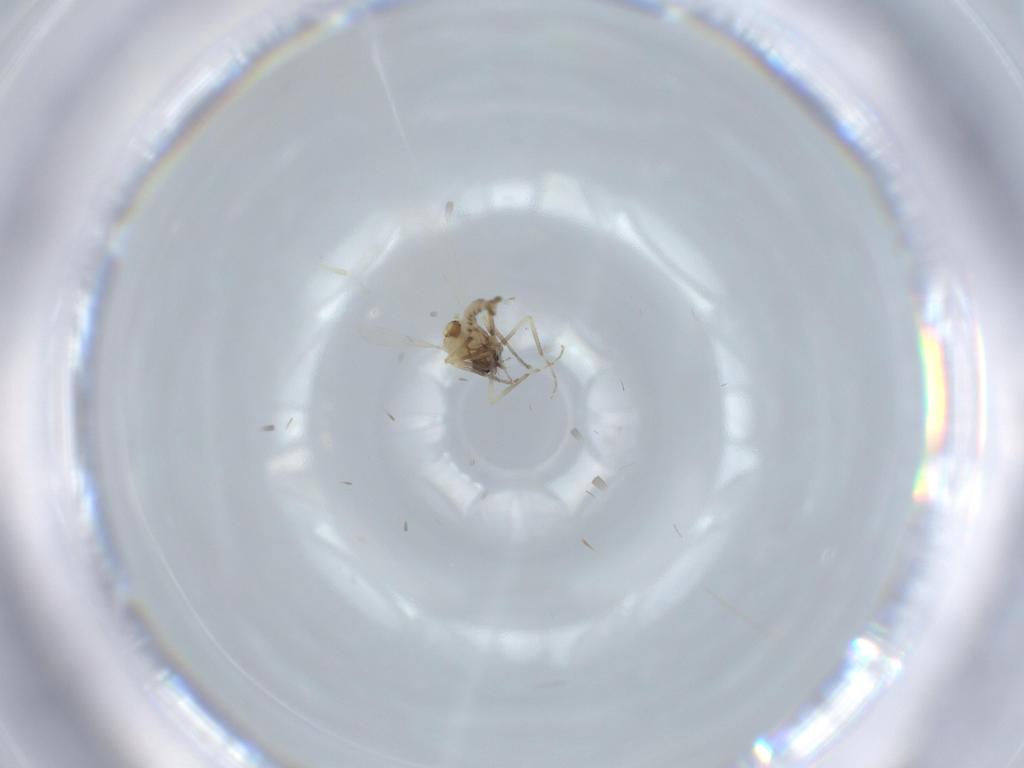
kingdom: Animalia
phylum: Arthropoda
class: Insecta
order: Diptera
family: Ceratopogonidae
